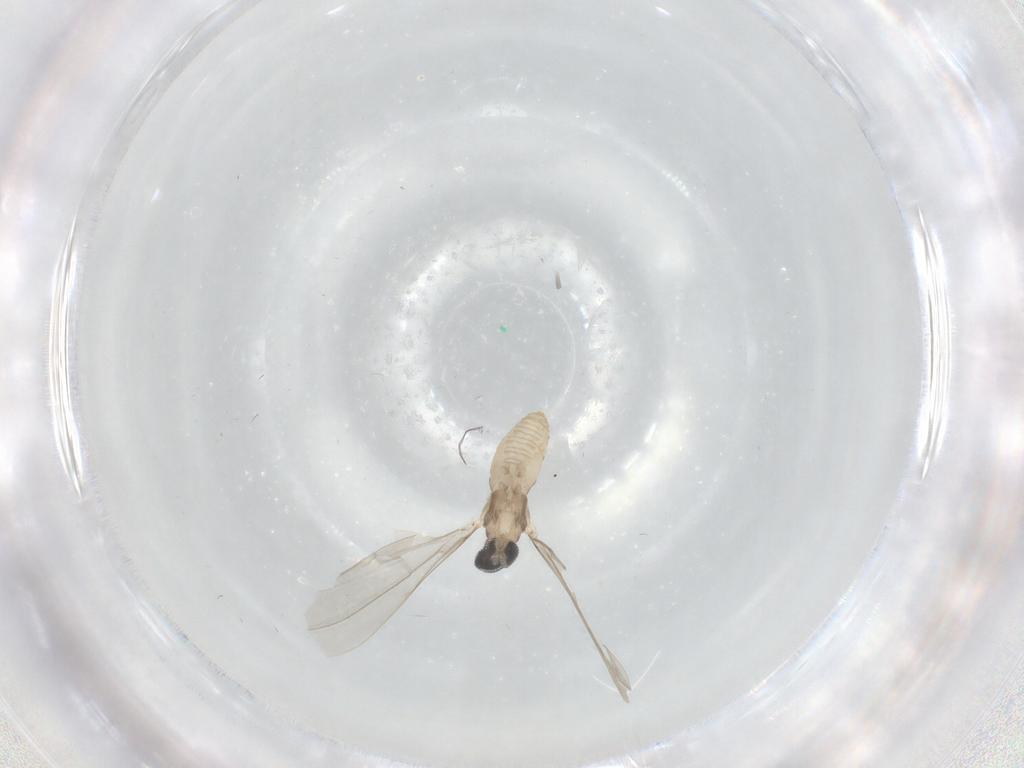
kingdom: Animalia
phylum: Arthropoda
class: Insecta
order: Diptera
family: Cecidomyiidae
